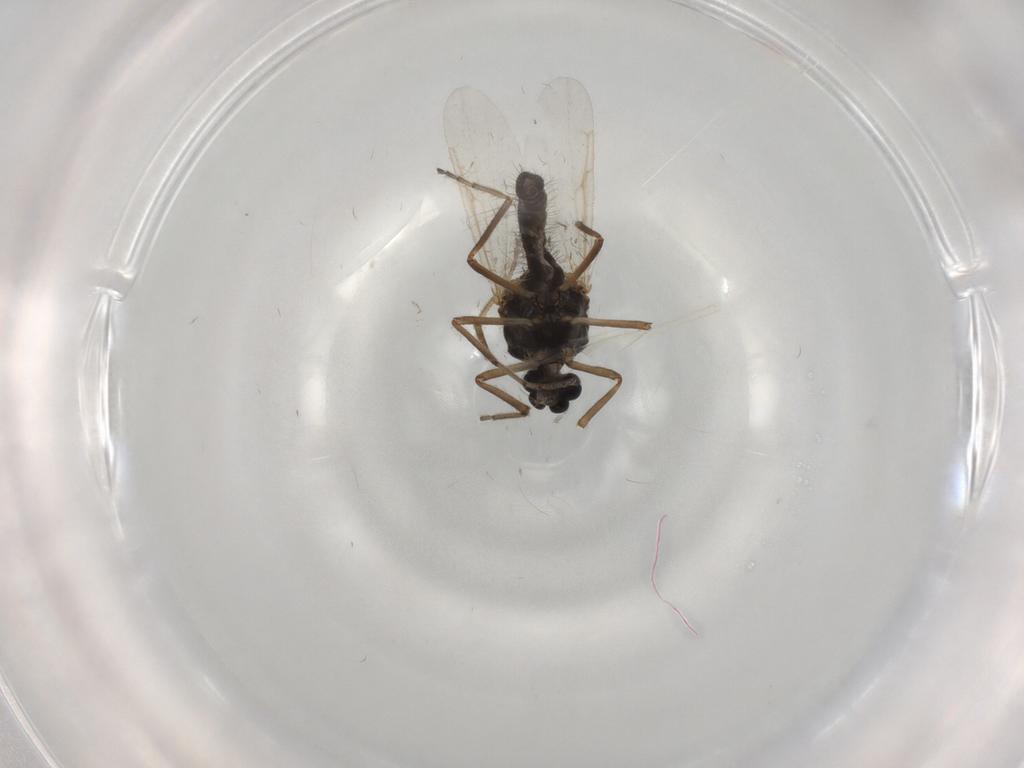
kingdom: Animalia
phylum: Arthropoda
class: Insecta
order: Diptera
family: Ceratopogonidae
